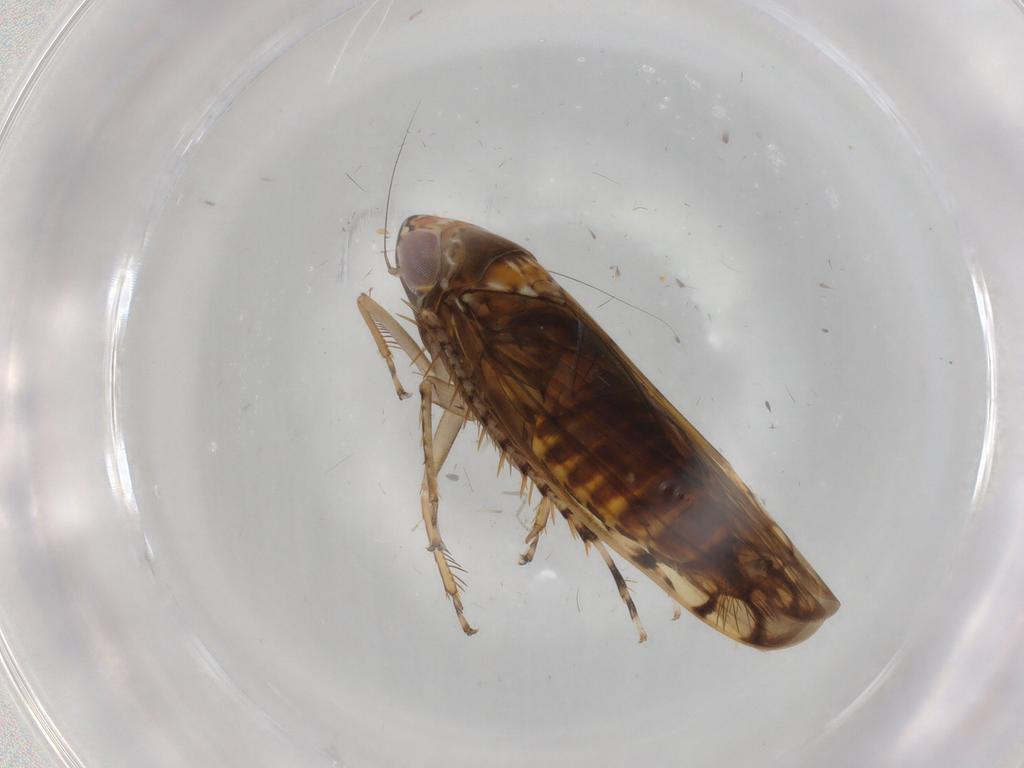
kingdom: Animalia
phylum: Arthropoda
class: Insecta
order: Hemiptera
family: Cicadellidae
